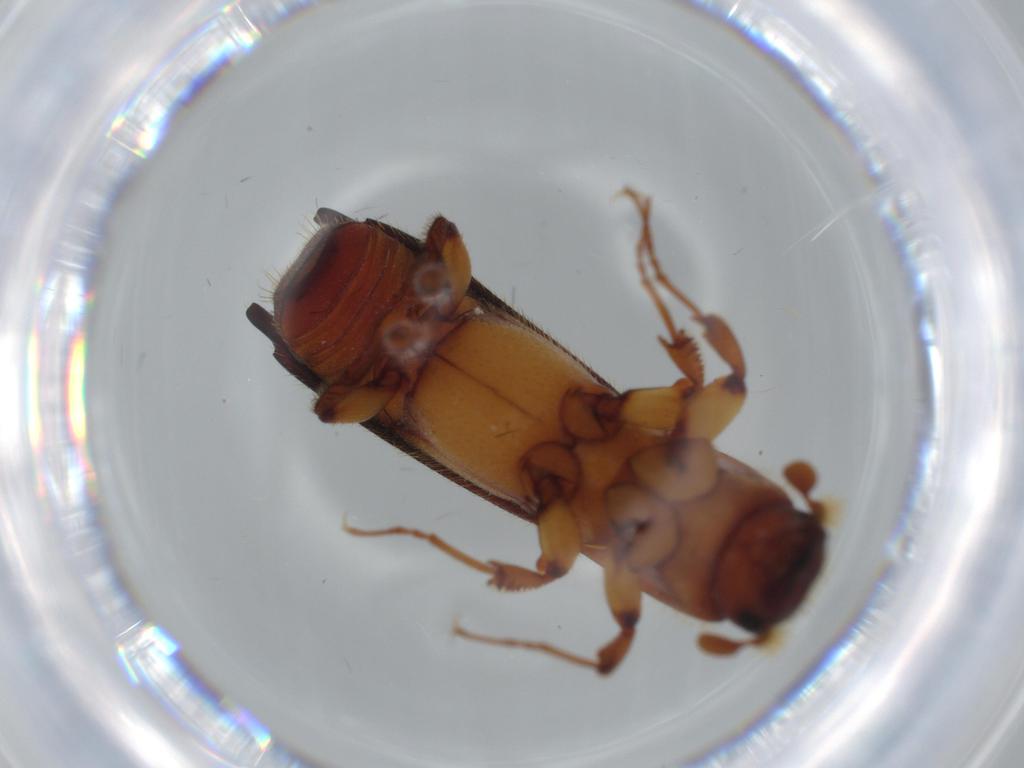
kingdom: Animalia
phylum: Arthropoda
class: Insecta
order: Coleoptera
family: Curculionidae
